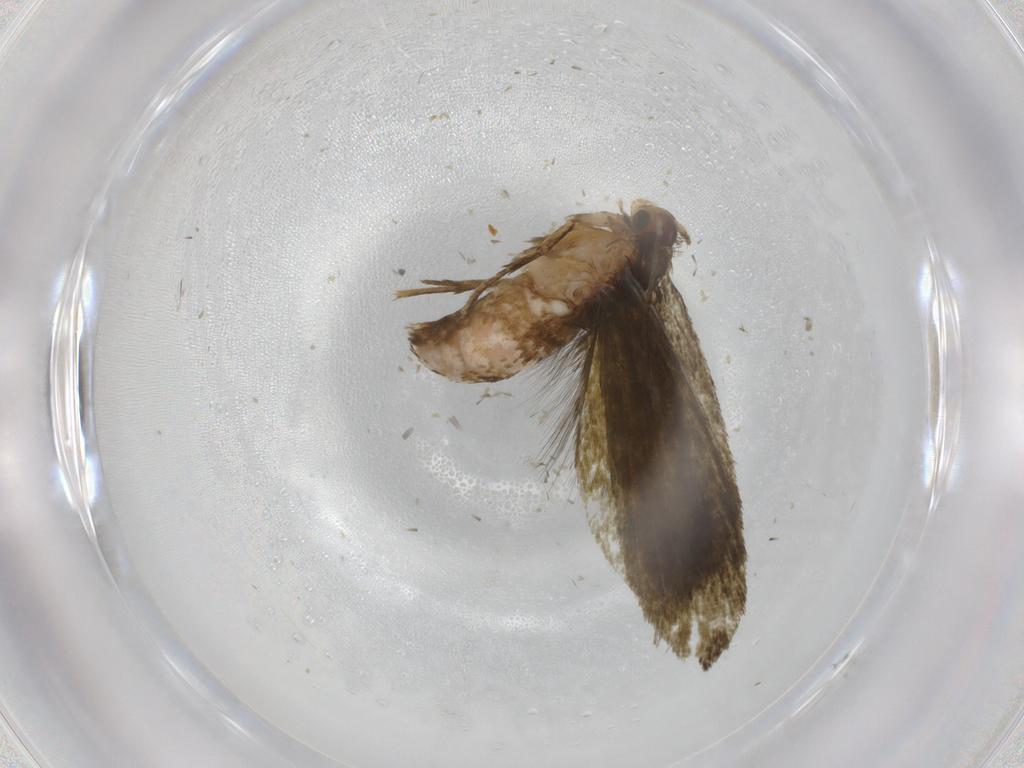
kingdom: Animalia
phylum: Arthropoda
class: Insecta
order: Lepidoptera
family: Tineidae
